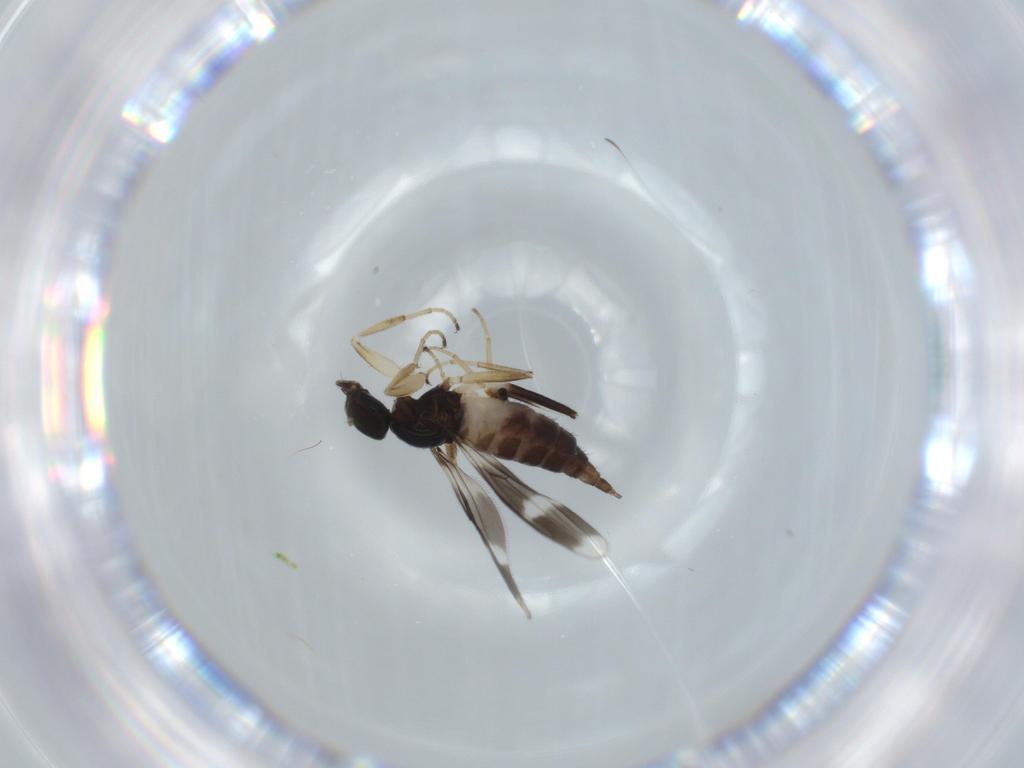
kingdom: Animalia
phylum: Arthropoda
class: Insecta
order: Diptera
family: Hybotidae
